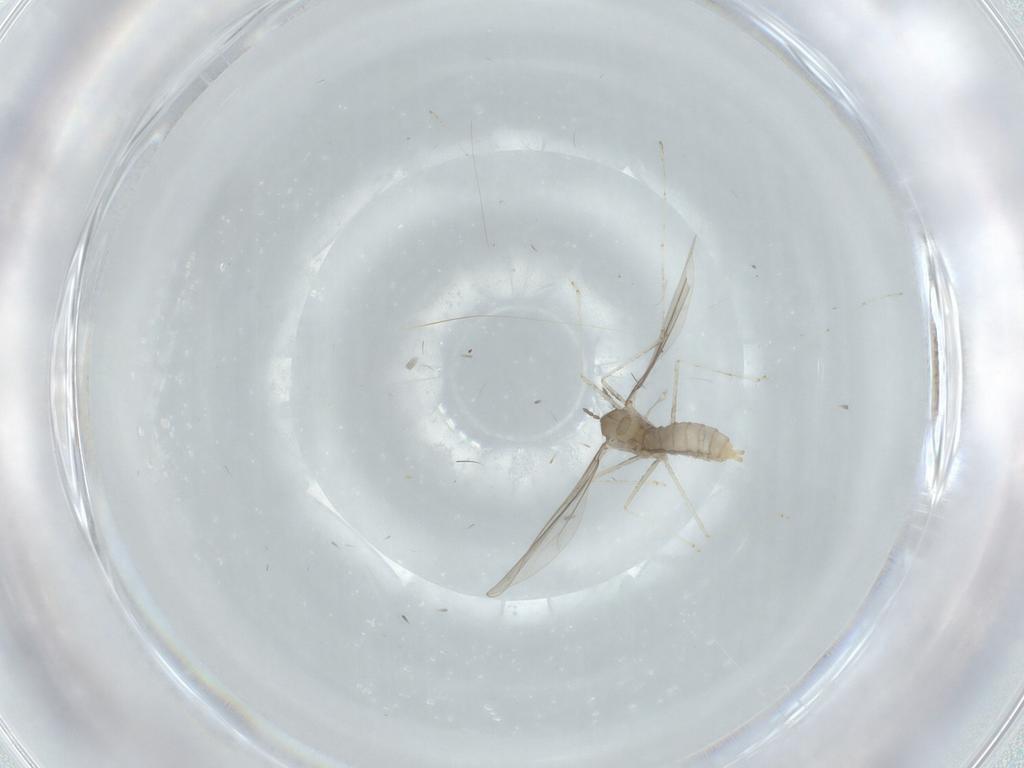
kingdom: Animalia
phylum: Arthropoda
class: Insecta
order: Diptera
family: Cecidomyiidae
